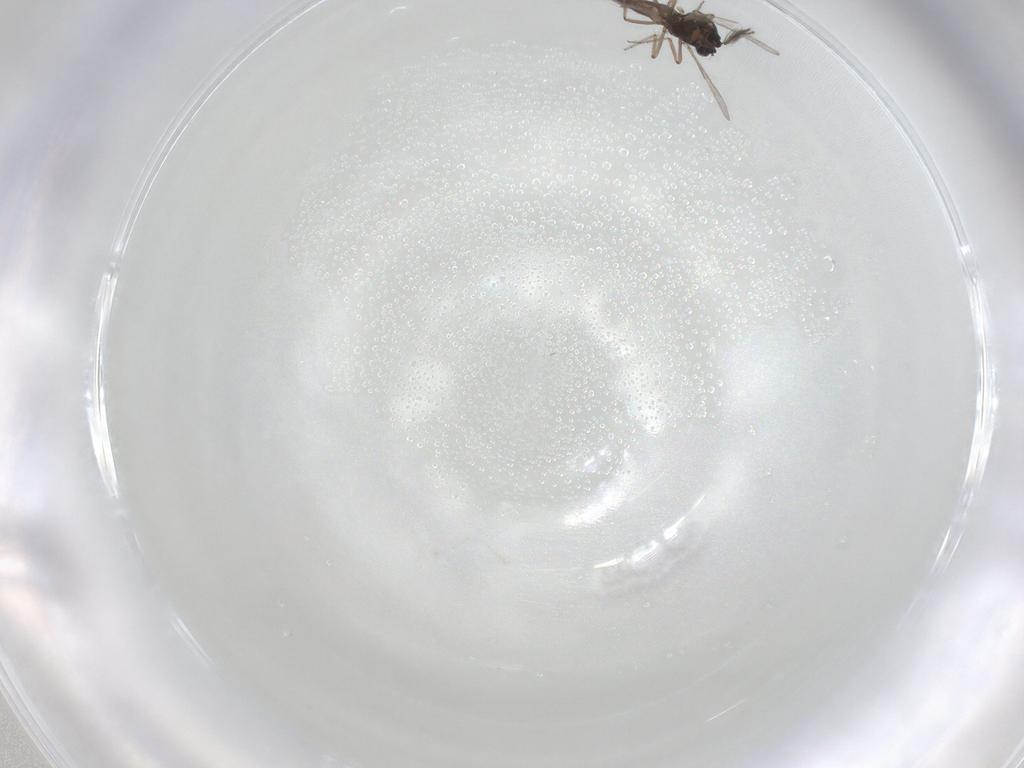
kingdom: Animalia
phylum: Arthropoda
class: Insecta
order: Diptera
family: Ceratopogonidae
